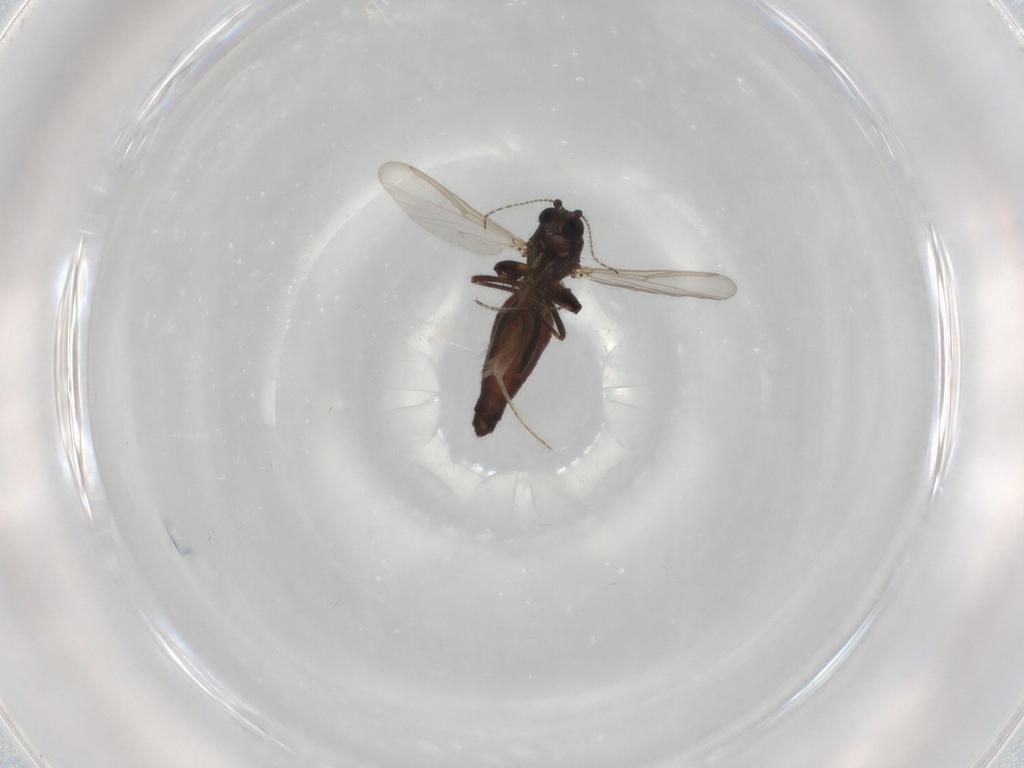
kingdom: Animalia
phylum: Arthropoda
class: Insecta
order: Diptera
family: Ceratopogonidae
